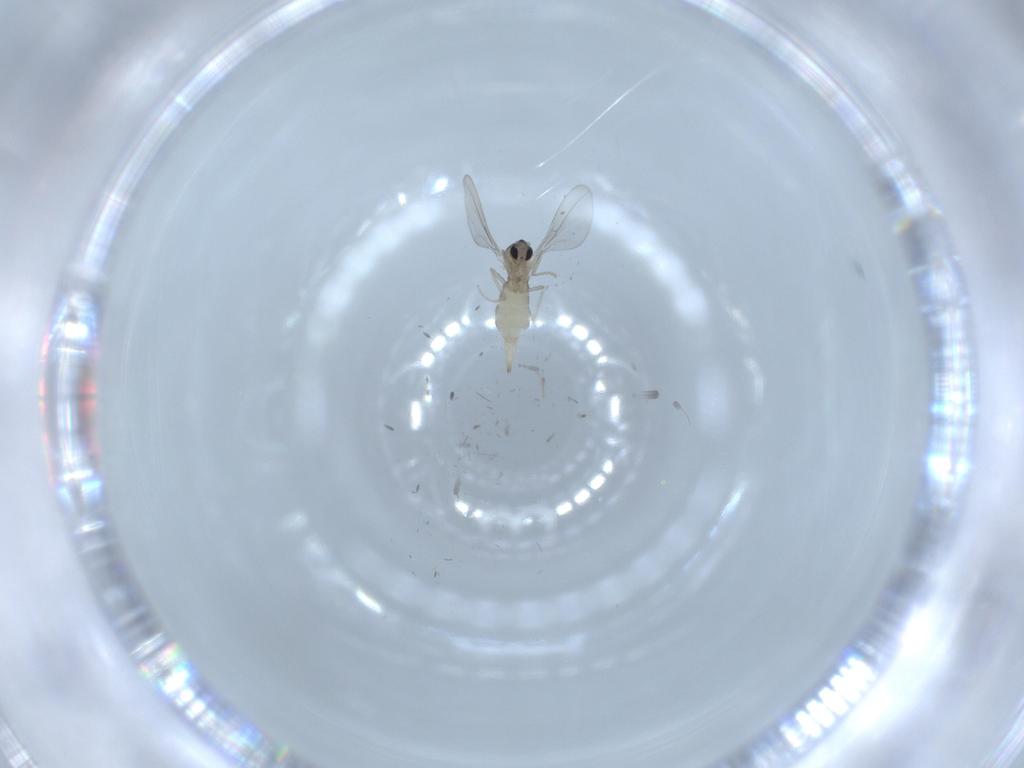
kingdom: Animalia
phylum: Arthropoda
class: Insecta
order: Diptera
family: Cecidomyiidae
